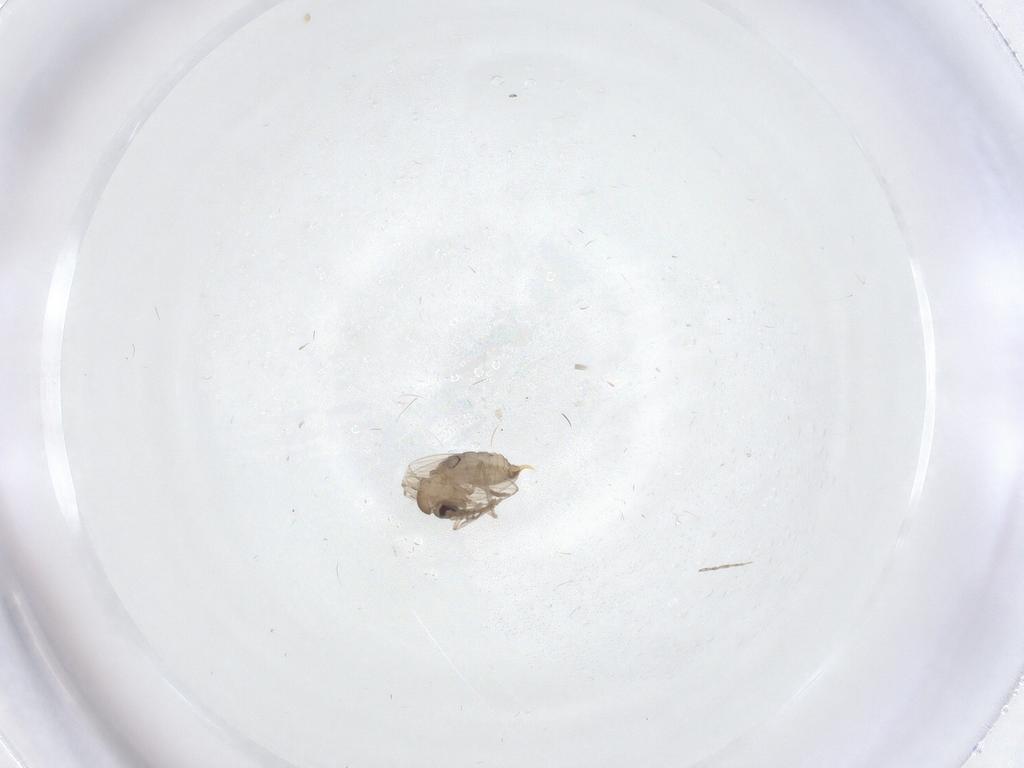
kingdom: Animalia
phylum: Arthropoda
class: Insecta
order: Diptera
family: Psychodidae
